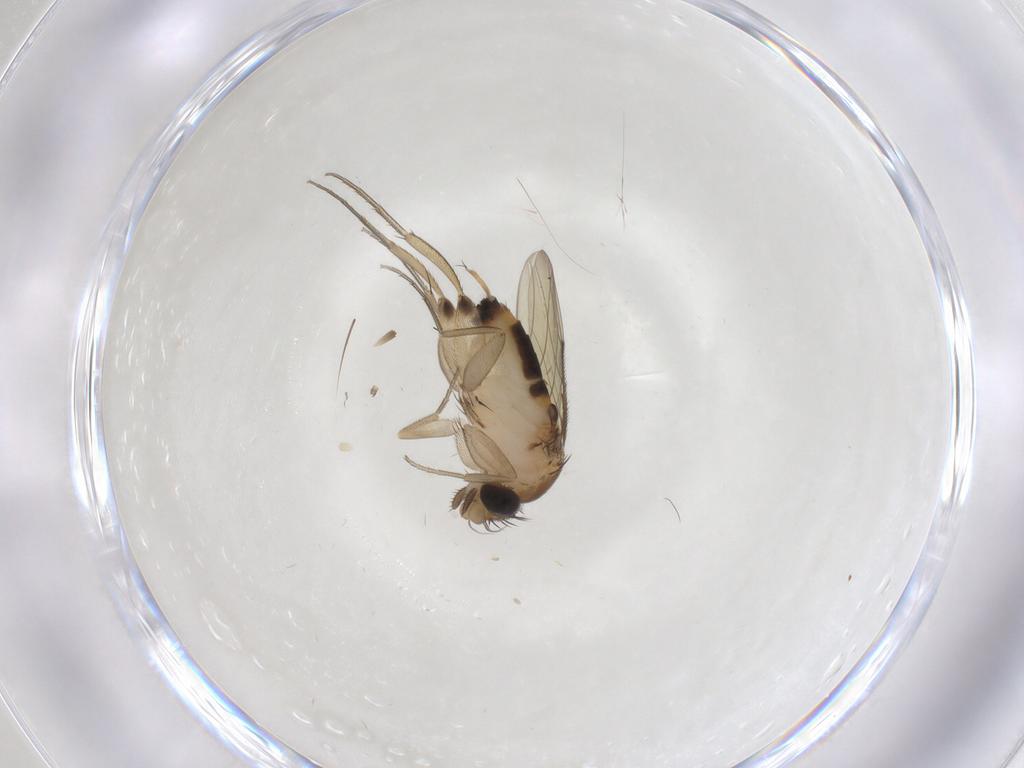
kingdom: Animalia
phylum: Arthropoda
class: Insecta
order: Diptera
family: Phoridae
